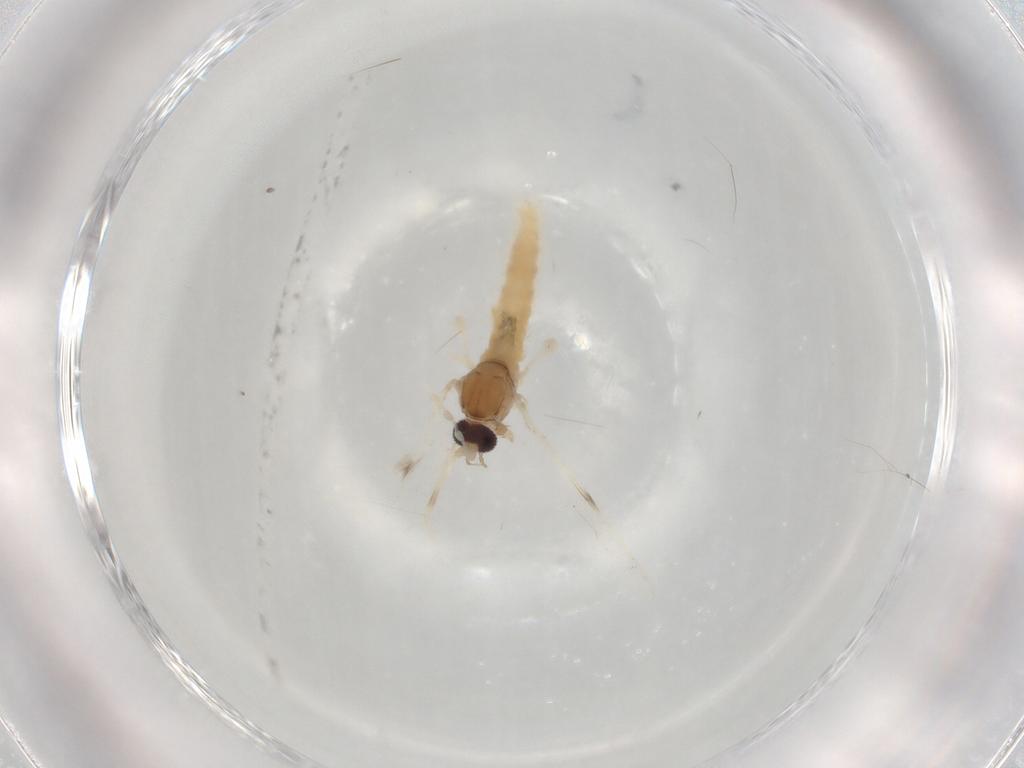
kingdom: Animalia
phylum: Arthropoda
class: Insecta
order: Diptera
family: Cecidomyiidae
